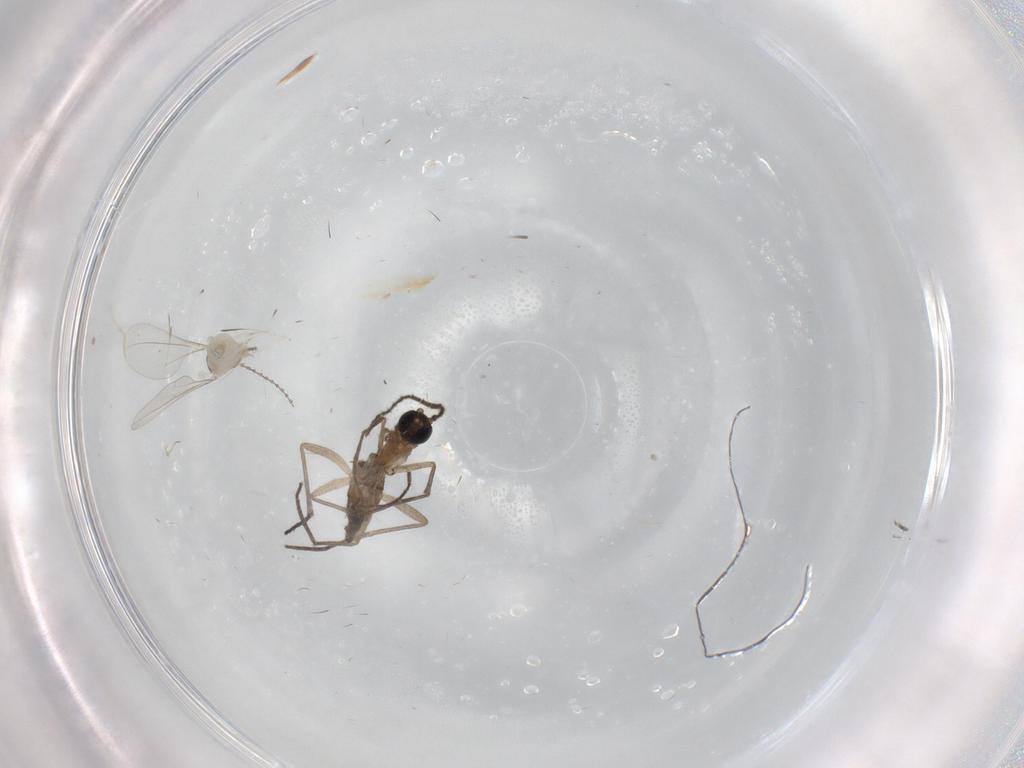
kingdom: Animalia
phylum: Arthropoda
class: Insecta
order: Diptera
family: Cecidomyiidae
